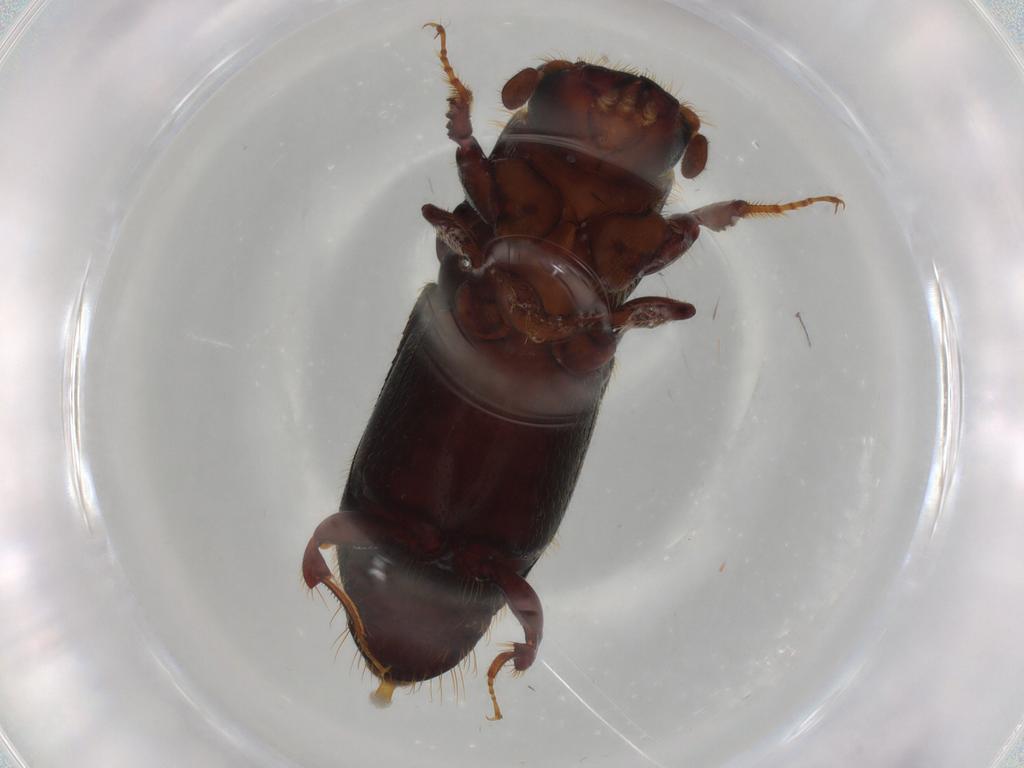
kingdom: Animalia
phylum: Arthropoda
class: Insecta
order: Coleoptera
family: Curculionidae
